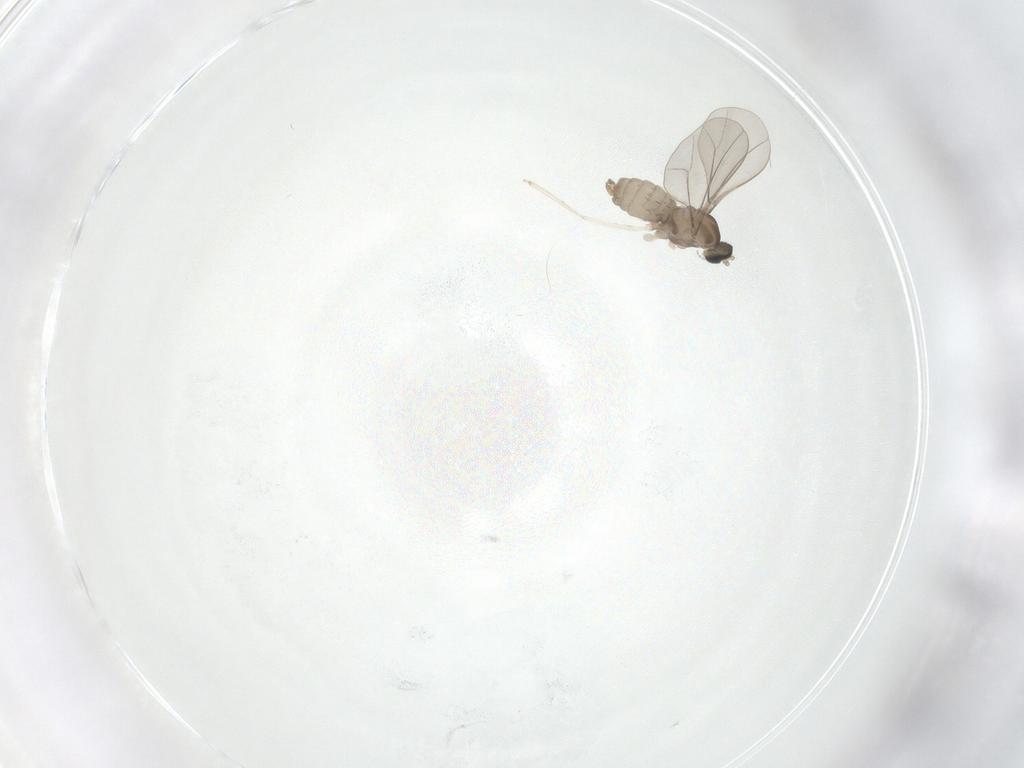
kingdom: Animalia
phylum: Arthropoda
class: Insecta
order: Diptera
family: Cecidomyiidae
